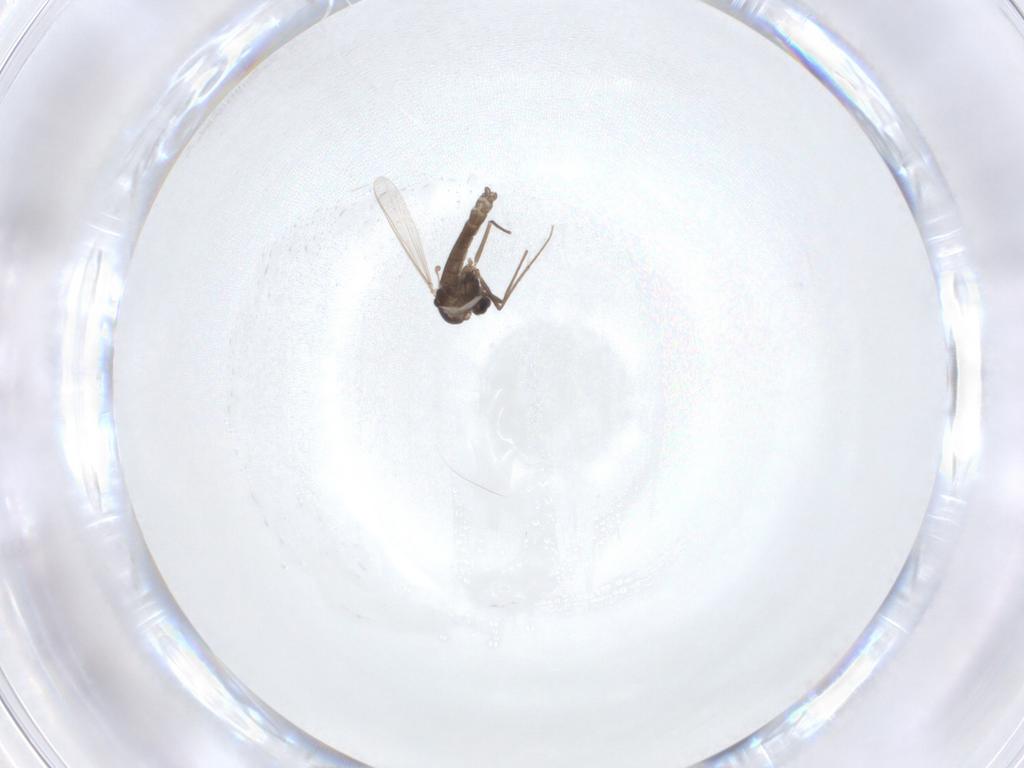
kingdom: Animalia
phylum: Arthropoda
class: Insecta
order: Diptera
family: Chironomidae
